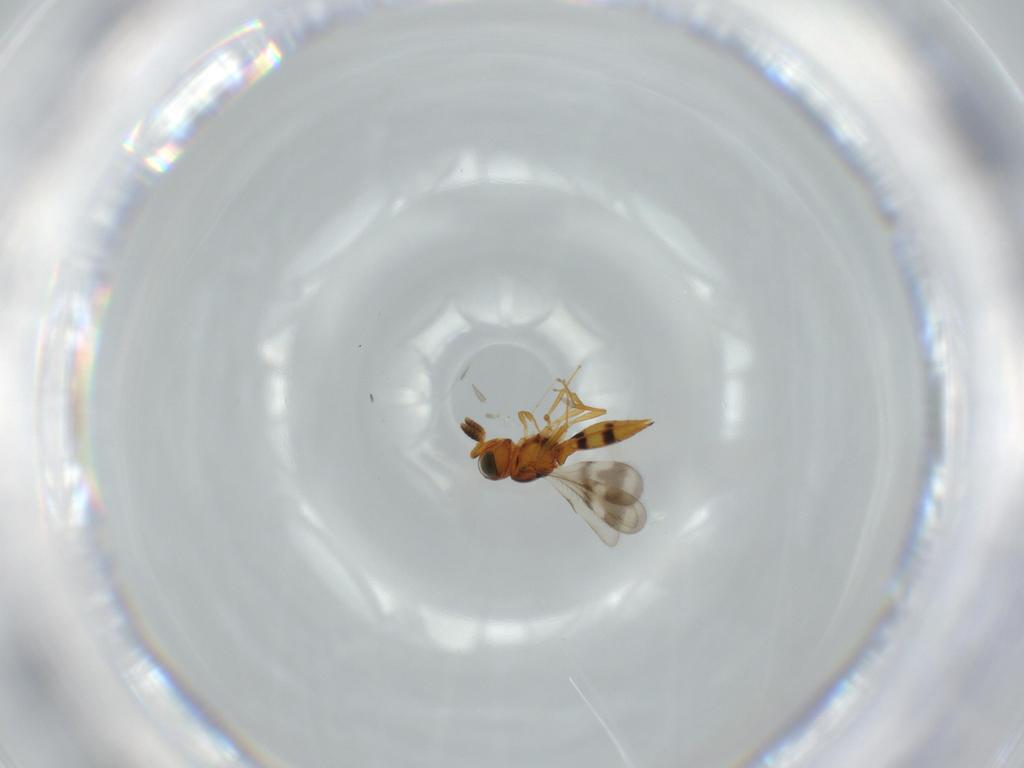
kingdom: Animalia
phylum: Arthropoda
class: Insecta
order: Hymenoptera
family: Scelionidae
